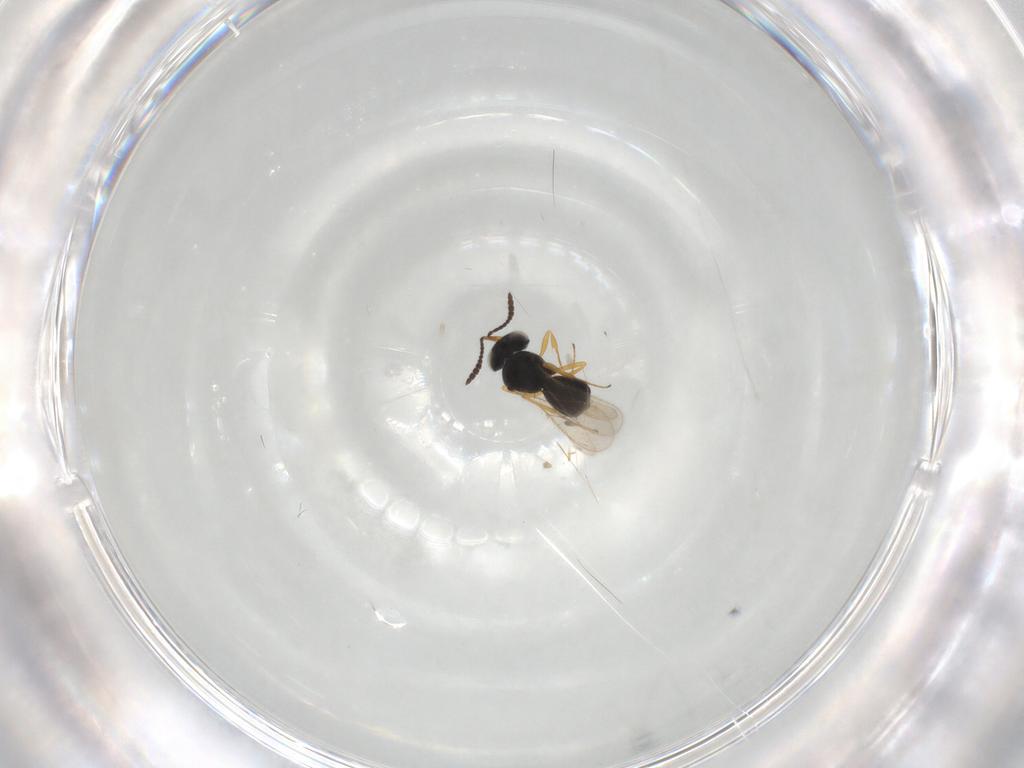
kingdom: Animalia
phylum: Arthropoda
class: Insecta
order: Hymenoptera
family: Scelionidae
